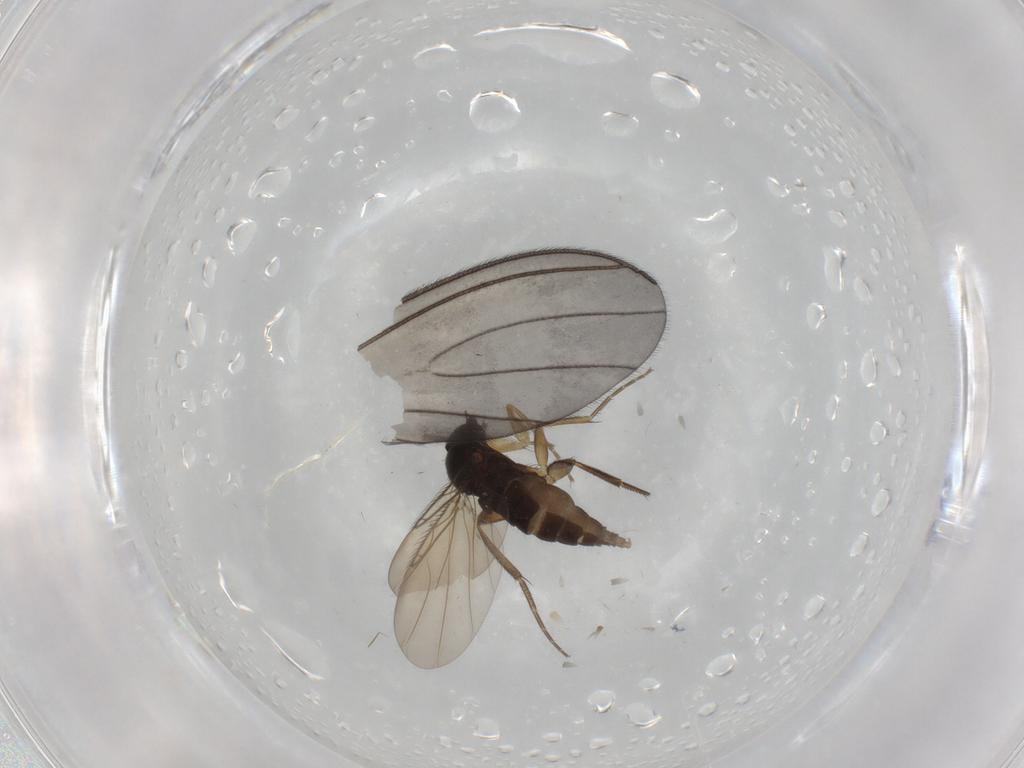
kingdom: Animalia
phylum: Arthropoda
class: Insecta
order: Diptera
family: Phoridae
